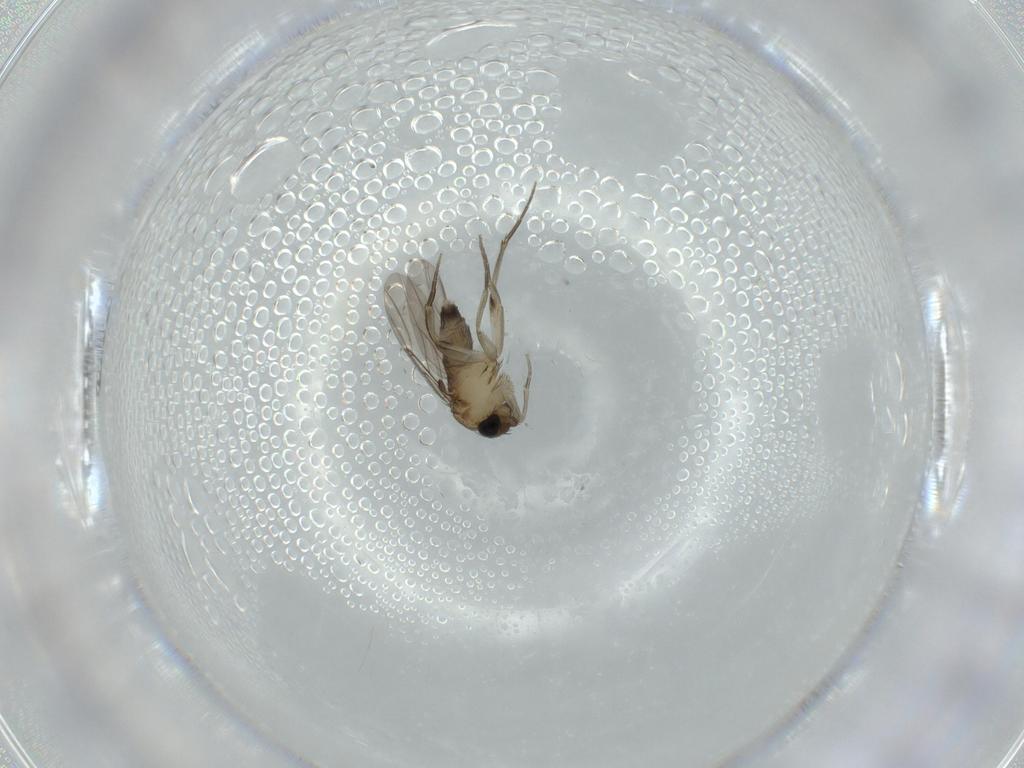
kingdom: Animalia
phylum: Arthropoda
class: Insecta
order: Diptera
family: Phoridae
